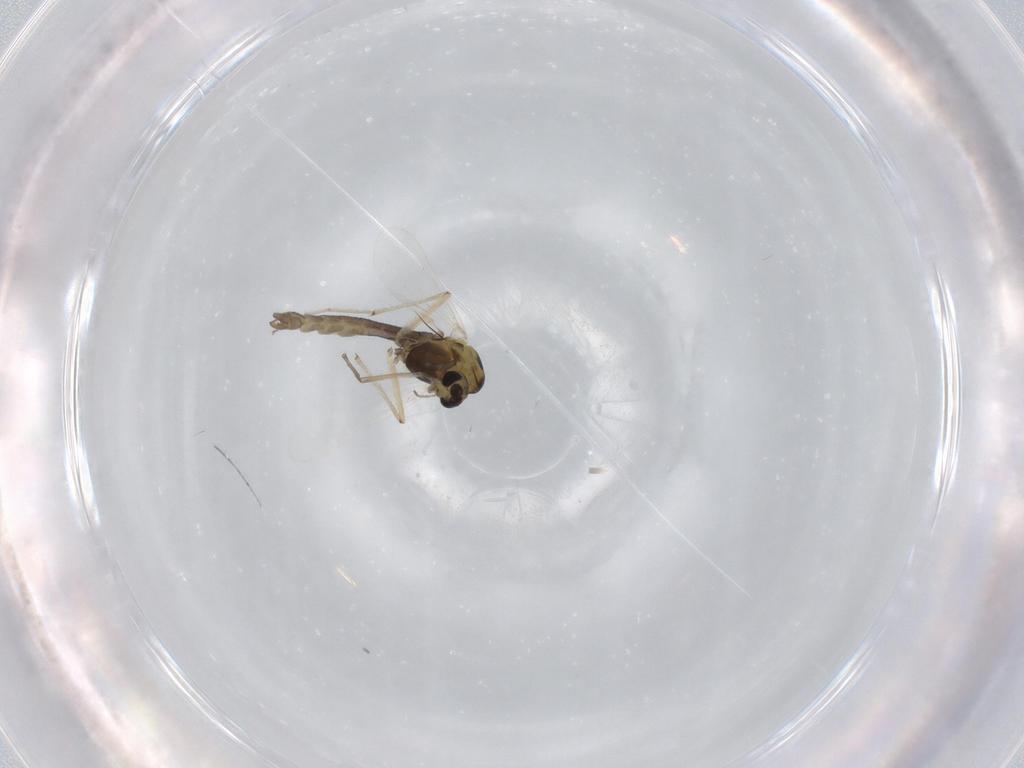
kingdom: Animalia
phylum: Arthropoda
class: Insecta
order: Diptera
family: Chironomidae
